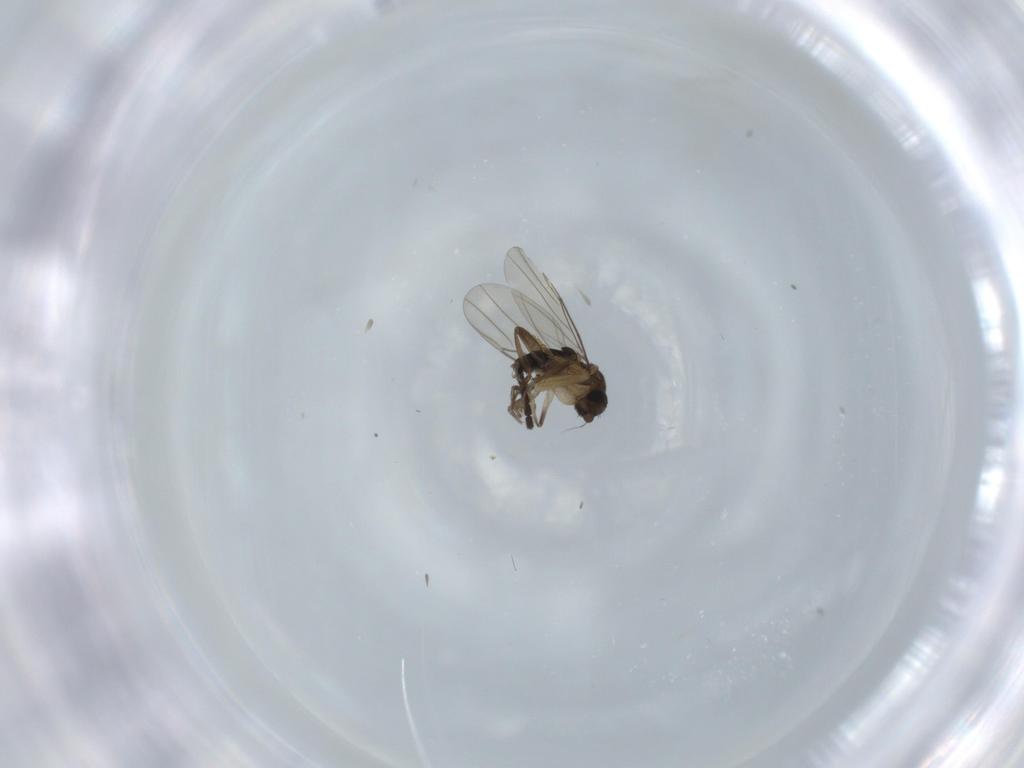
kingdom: Animalia
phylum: Arthropoda
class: Insecta
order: Diptera
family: Phoridae
